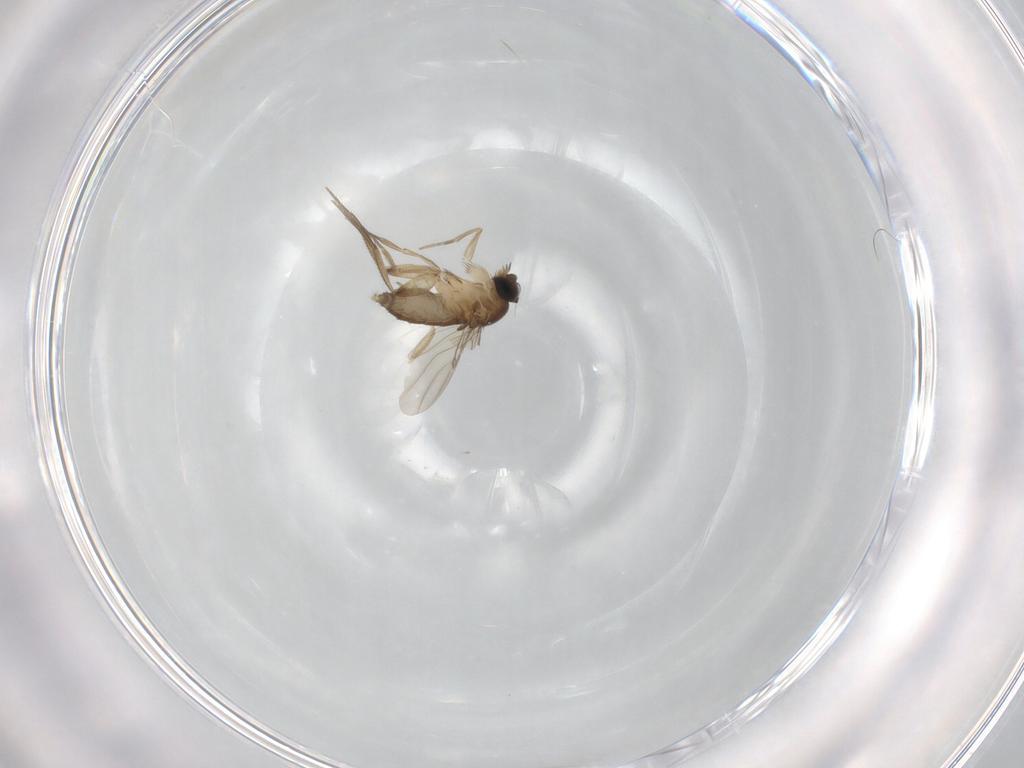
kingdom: Animalia
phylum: Arthropoda
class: Insecta
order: Diptera
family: Phoridae
